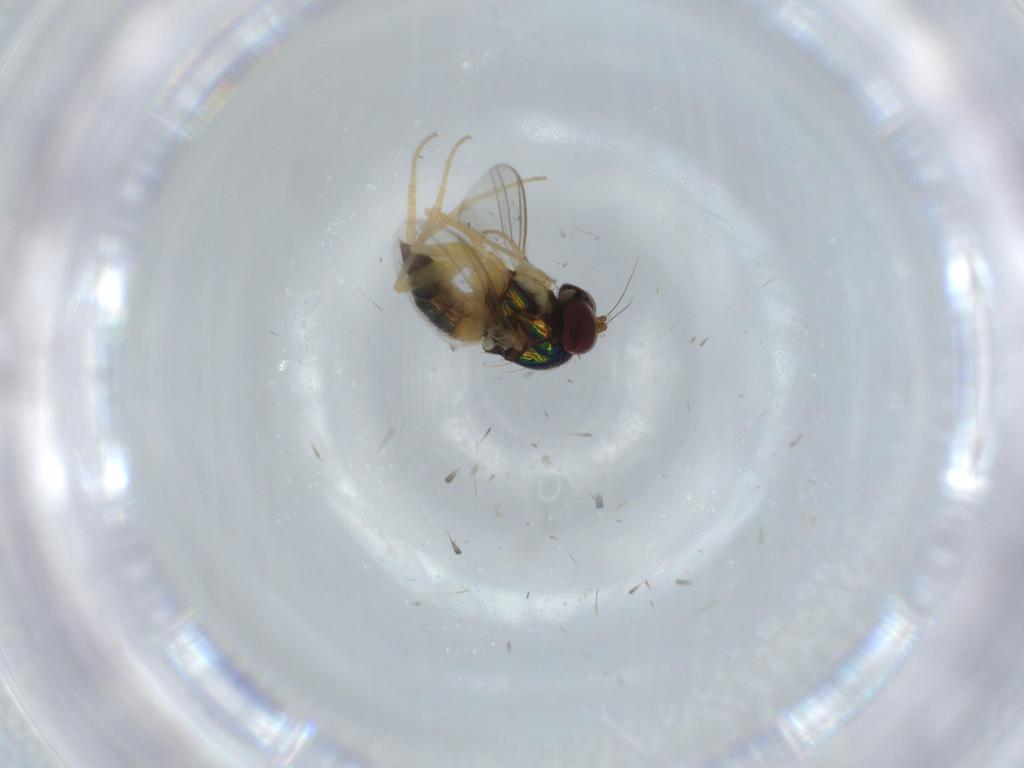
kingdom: Animalia
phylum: Arthropoda
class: Insecta
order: Diptera
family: Dolichopodidae
